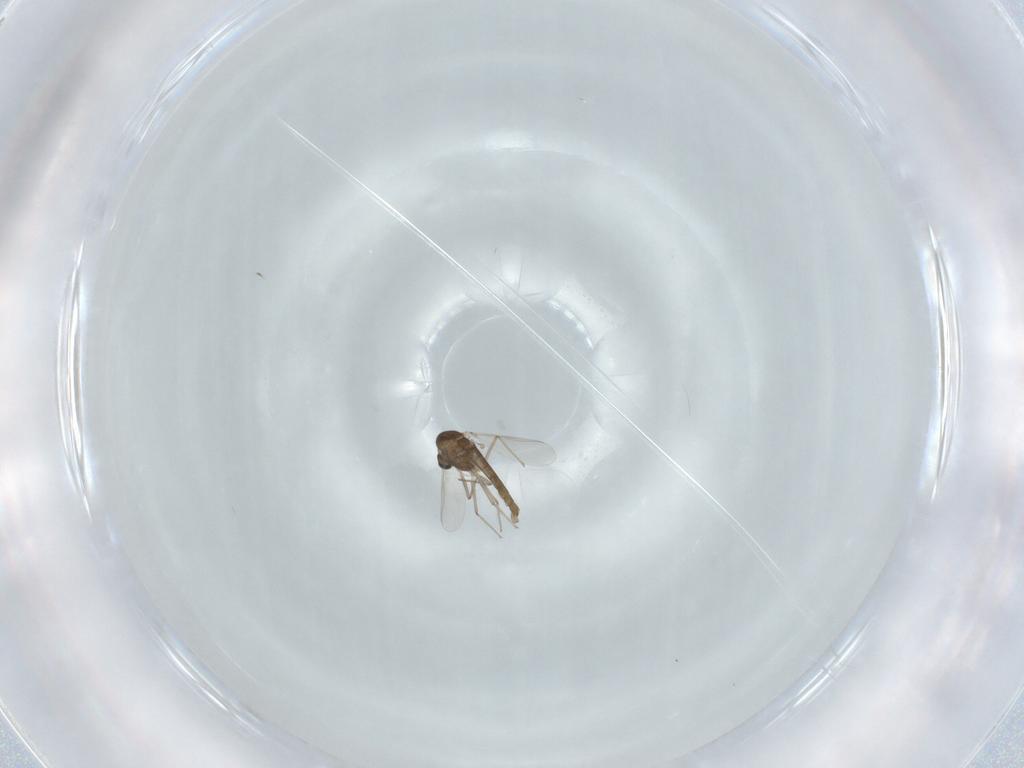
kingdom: Animalia
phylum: Arthropoda
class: Insecta
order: Diptera
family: Chironomidae
